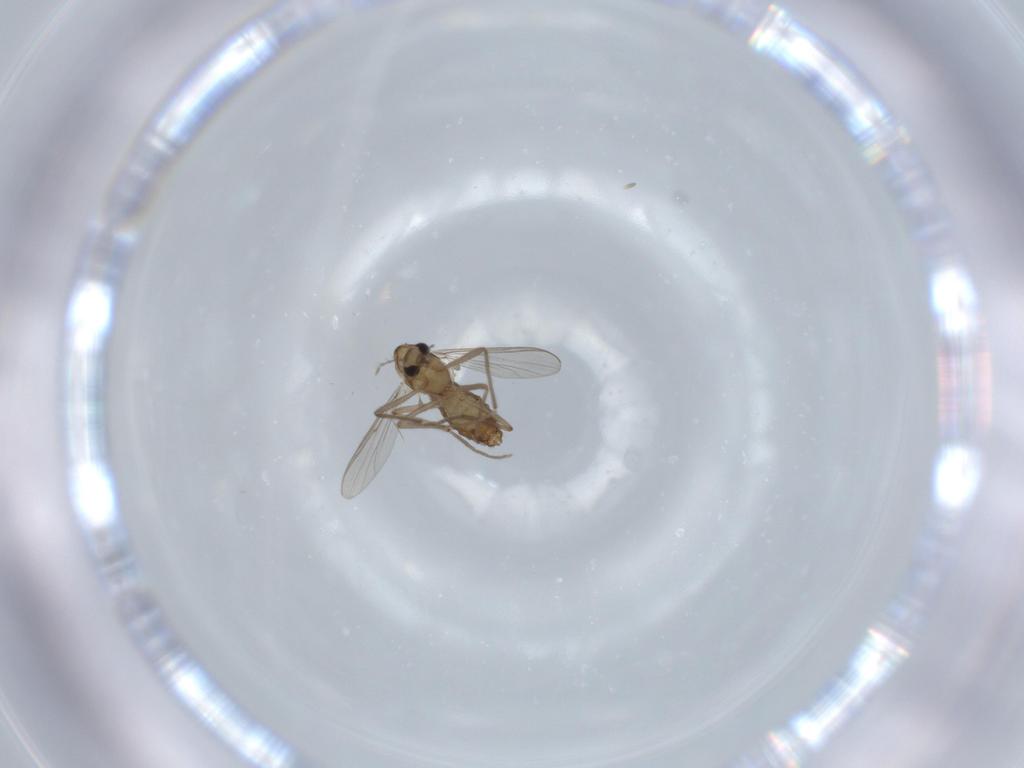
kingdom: Animalia
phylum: Arthropoda
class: Insecta
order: Diptera
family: Chironomidae
